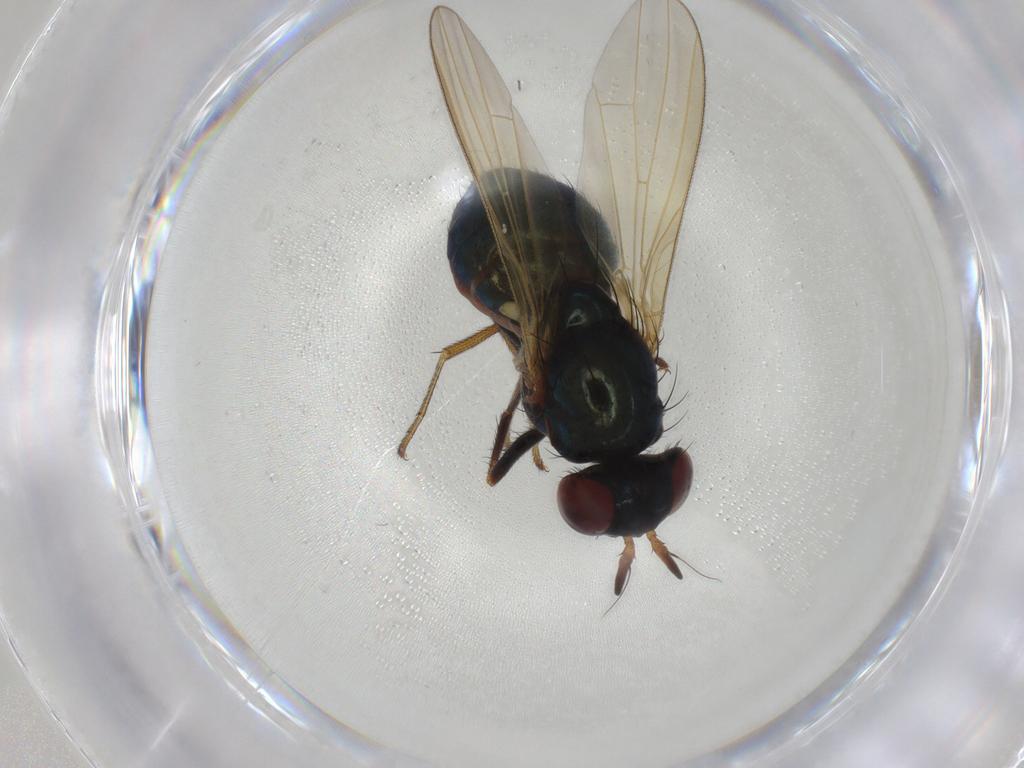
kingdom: Animalia
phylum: Arthropoda
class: Insecta
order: Diptera
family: Lauxaniidae
